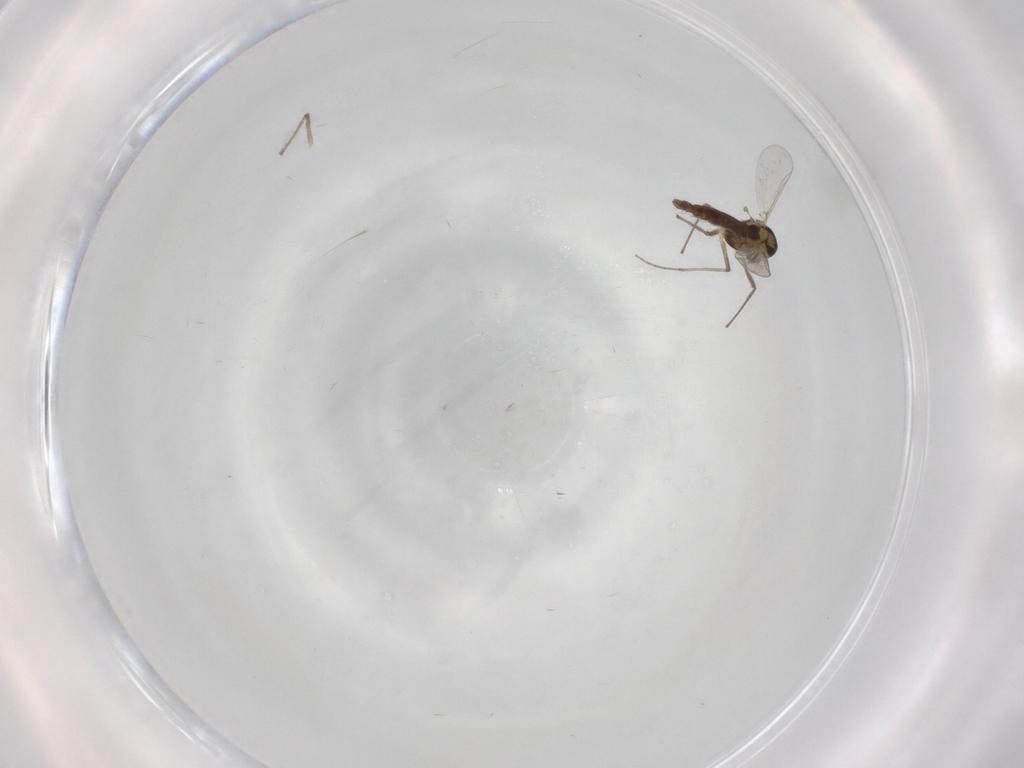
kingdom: Animalia
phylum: Arthropoda
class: Insecta
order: Diptera
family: Chironomidae
